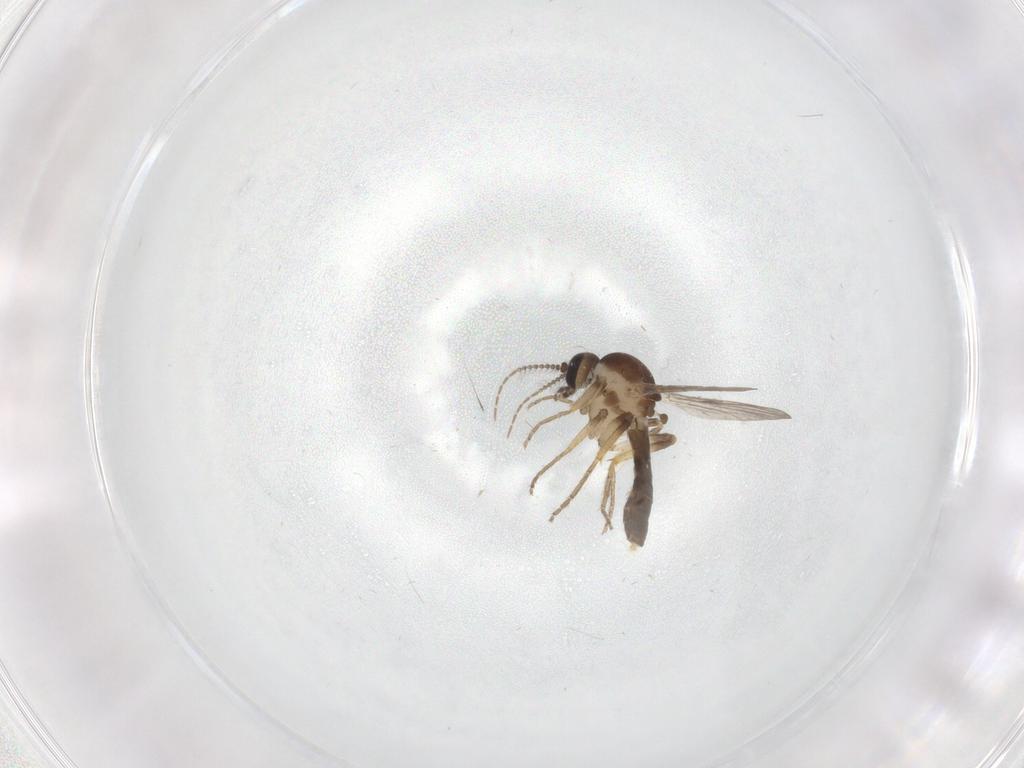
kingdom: Animalia
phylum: Arthropoda
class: Insecta
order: Diptera
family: Ceratopogonidae
